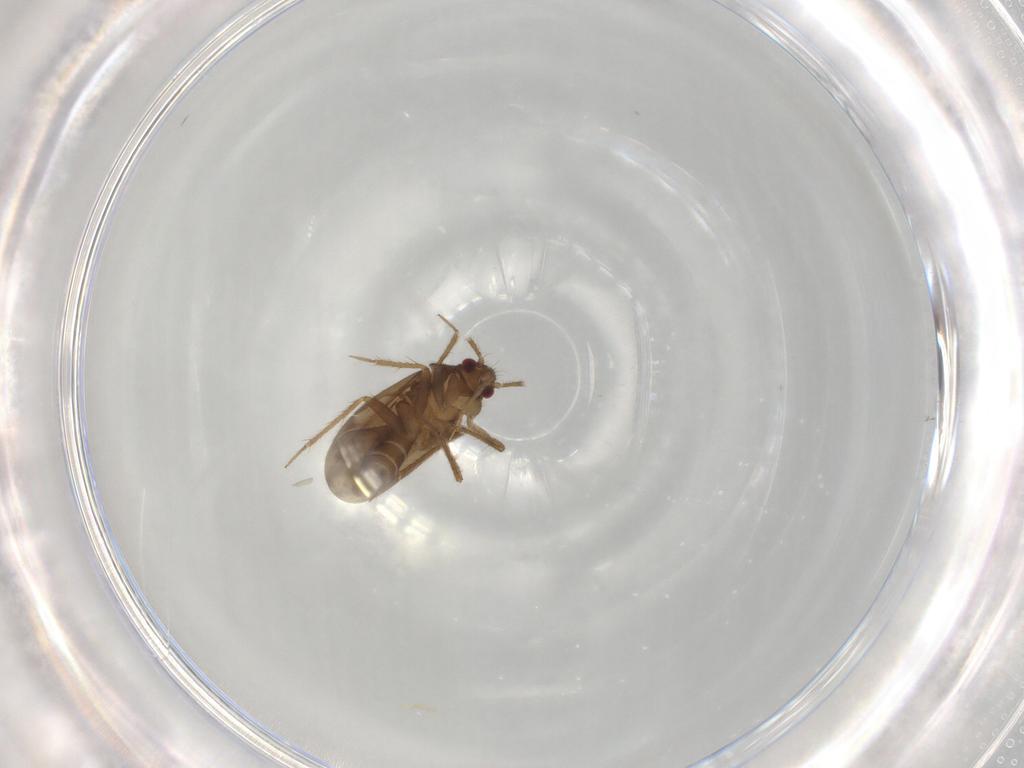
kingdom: Animalia
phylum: Arthropoda
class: Insecta
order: Hemiptera
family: Ceratocombidae
